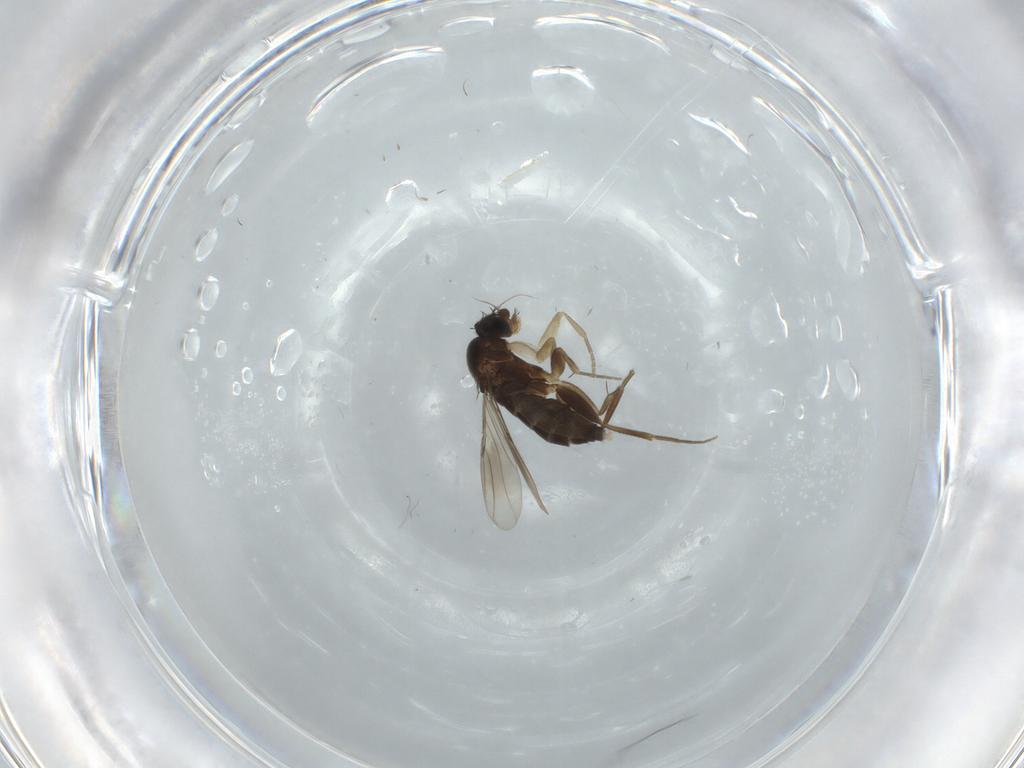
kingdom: Animalia
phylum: Arthropoda
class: Insecta
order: Diptera
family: Phoridae
